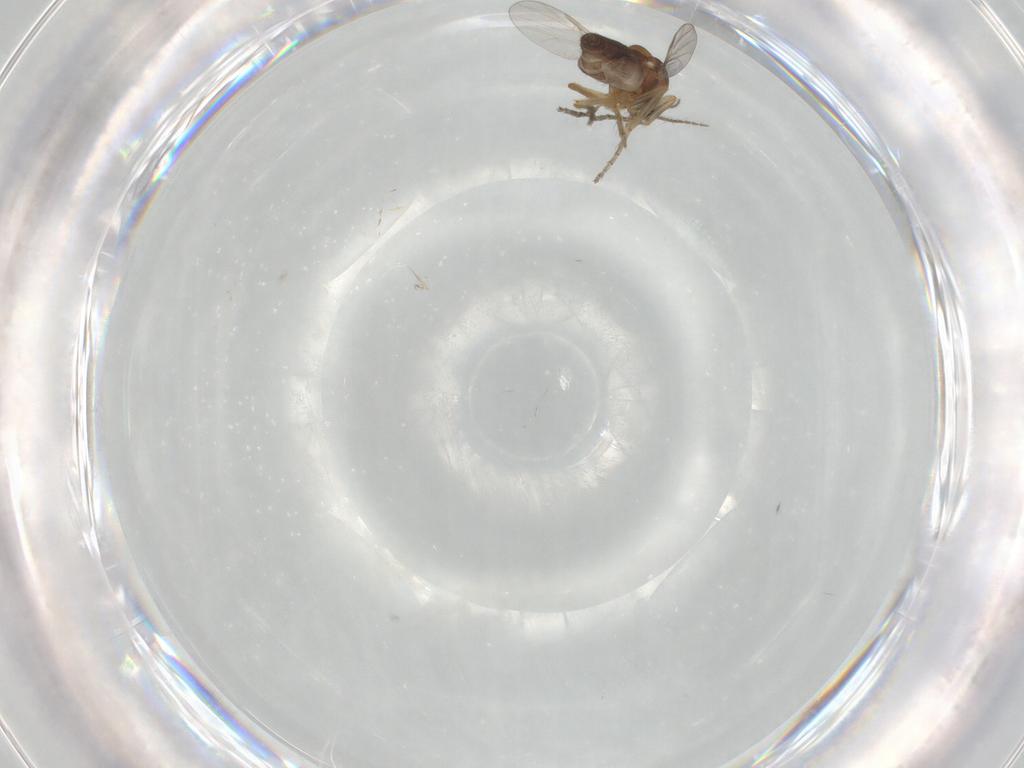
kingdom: Animalia
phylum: Arthropoda
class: Insecta
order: Diptera
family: Ceratopogonidae
